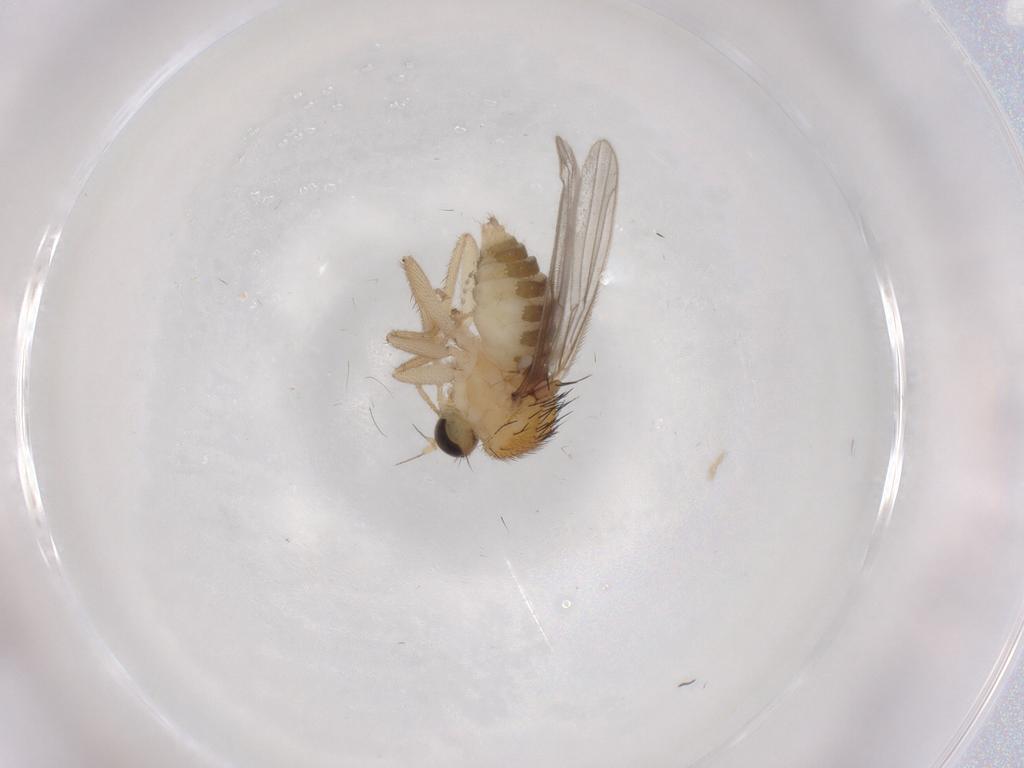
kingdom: Animalia
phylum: Arthropoda
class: Insecta
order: Diptera
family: Hybotidae
